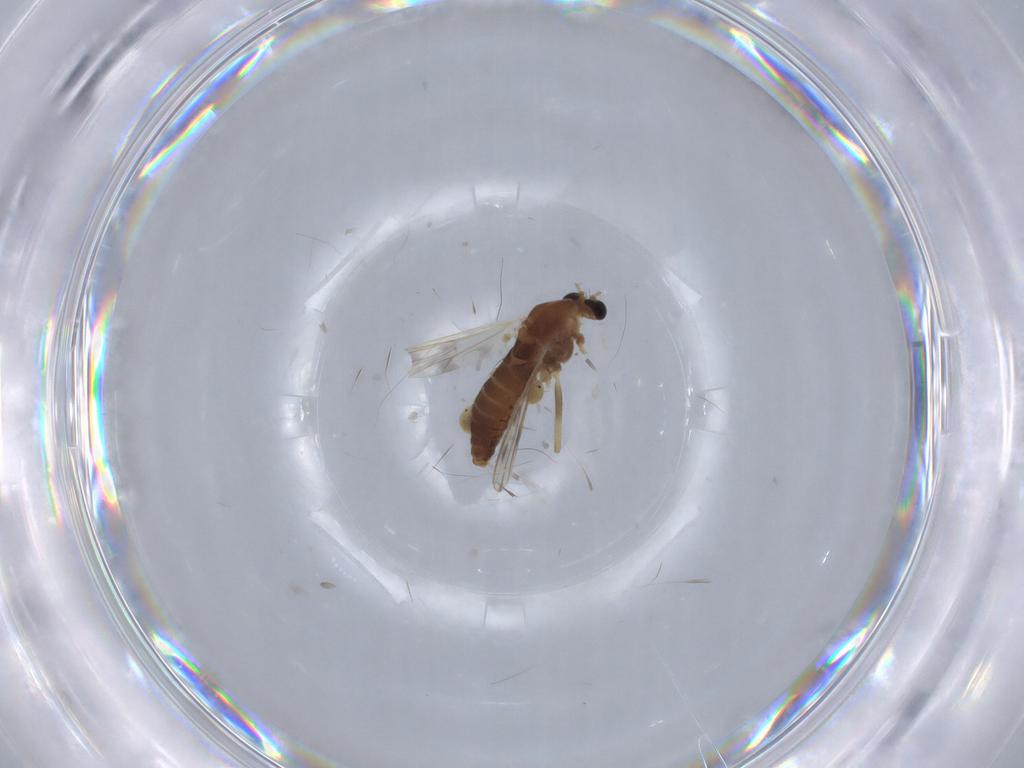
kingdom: Animalia
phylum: Arthropoda
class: Insecta
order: Diptera
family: Chironomidae
